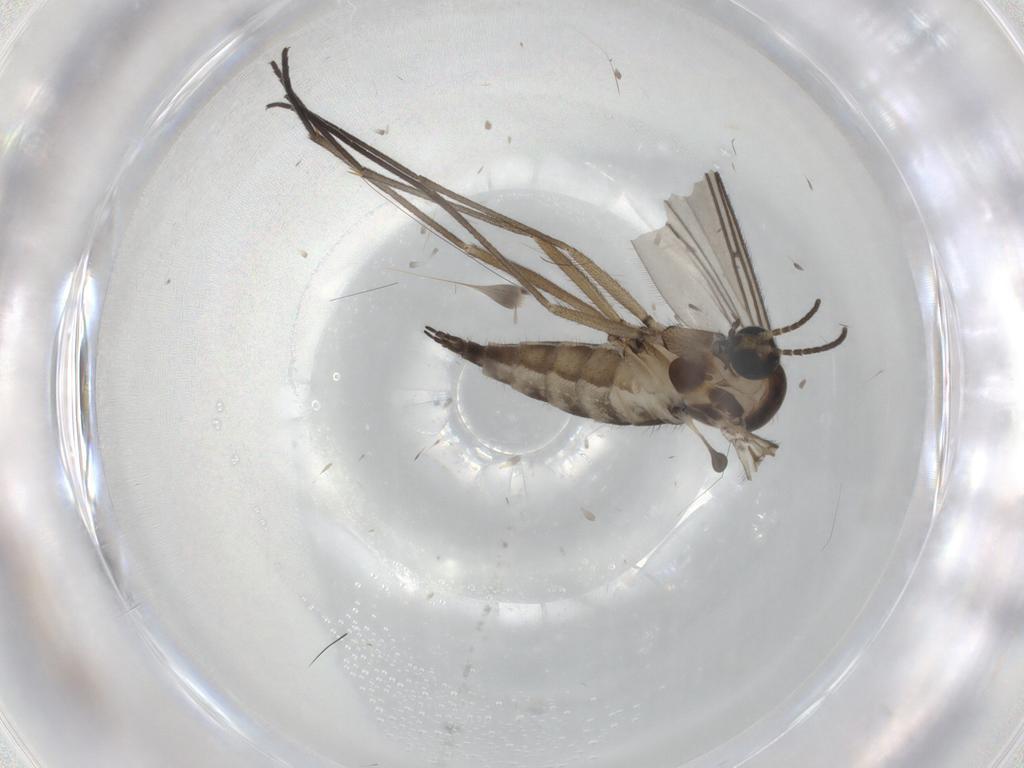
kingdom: Animalia
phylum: Arthropoda
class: Insecta
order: Diptera
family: Sciaridae
